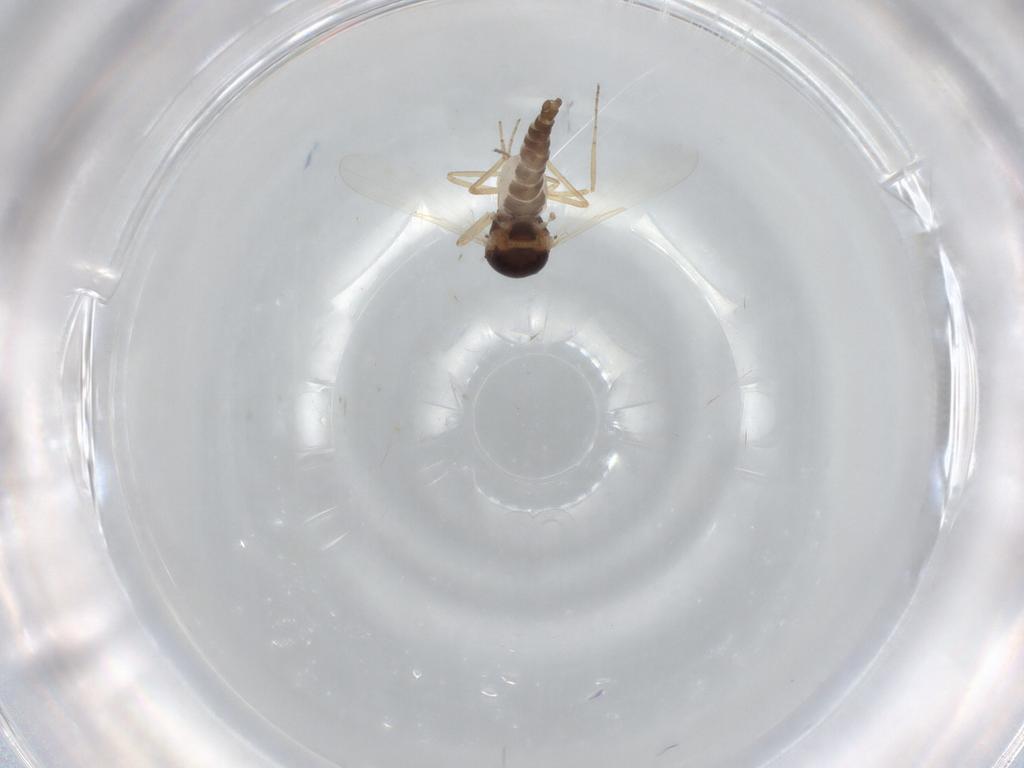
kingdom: Animalia
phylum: Arthropoda
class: Insecta
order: Diptera
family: Ceratopogonidae
